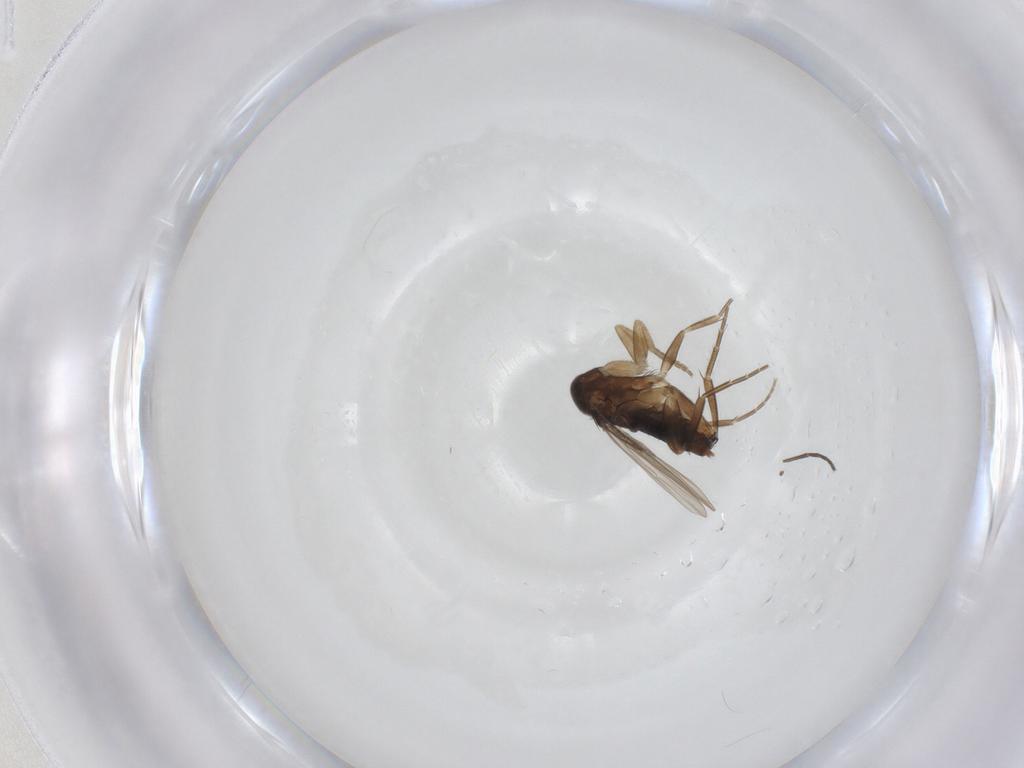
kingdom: Animalia
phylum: Arthropoda
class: Insecta
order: Diptera
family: Phoridae
